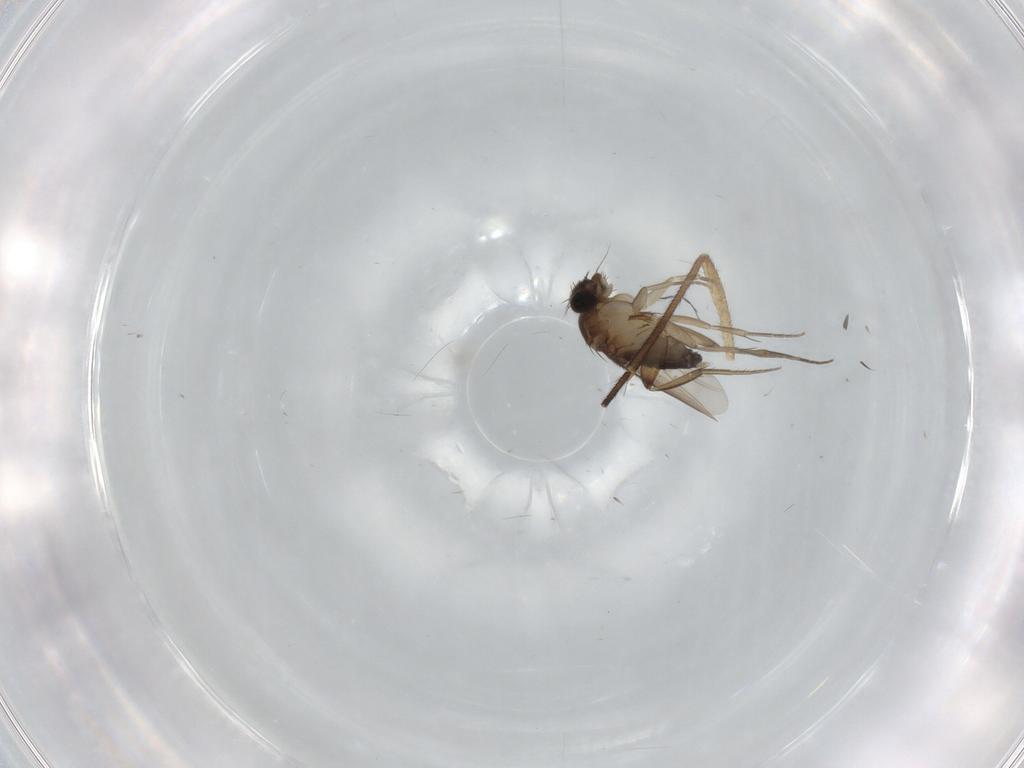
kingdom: Animalia
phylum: Arthropoda
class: Insecta
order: Diptera
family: Phoridae
